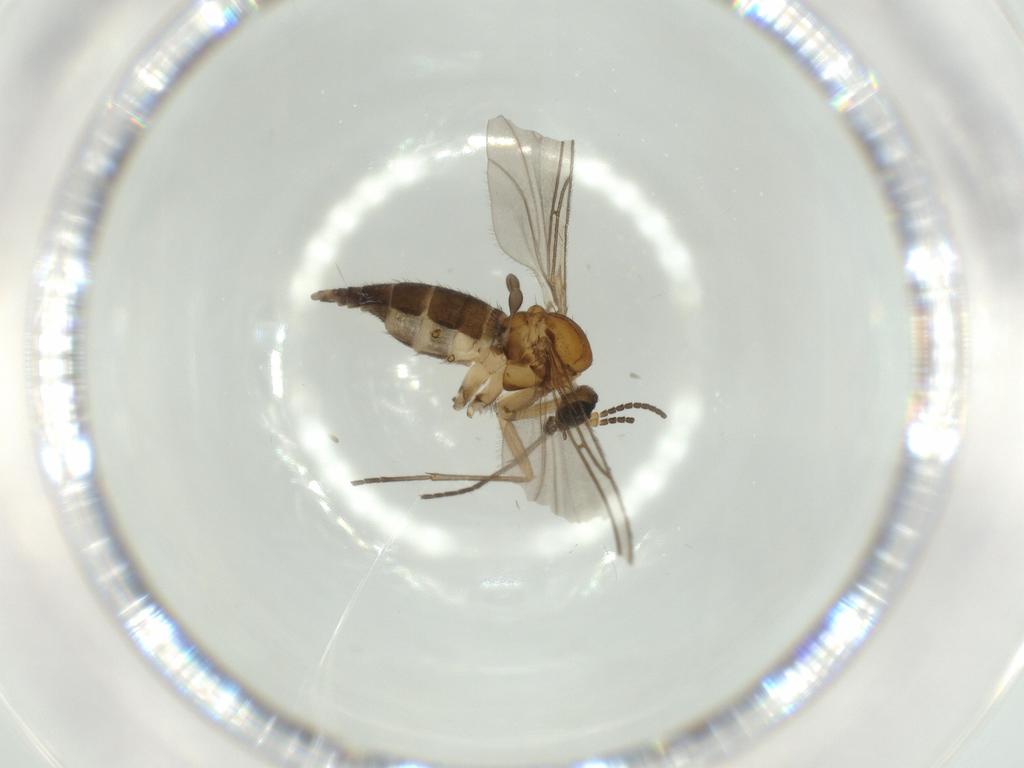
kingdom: Animalia
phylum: Arthropoda
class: Insecta
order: Diptera
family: Sciaridae
